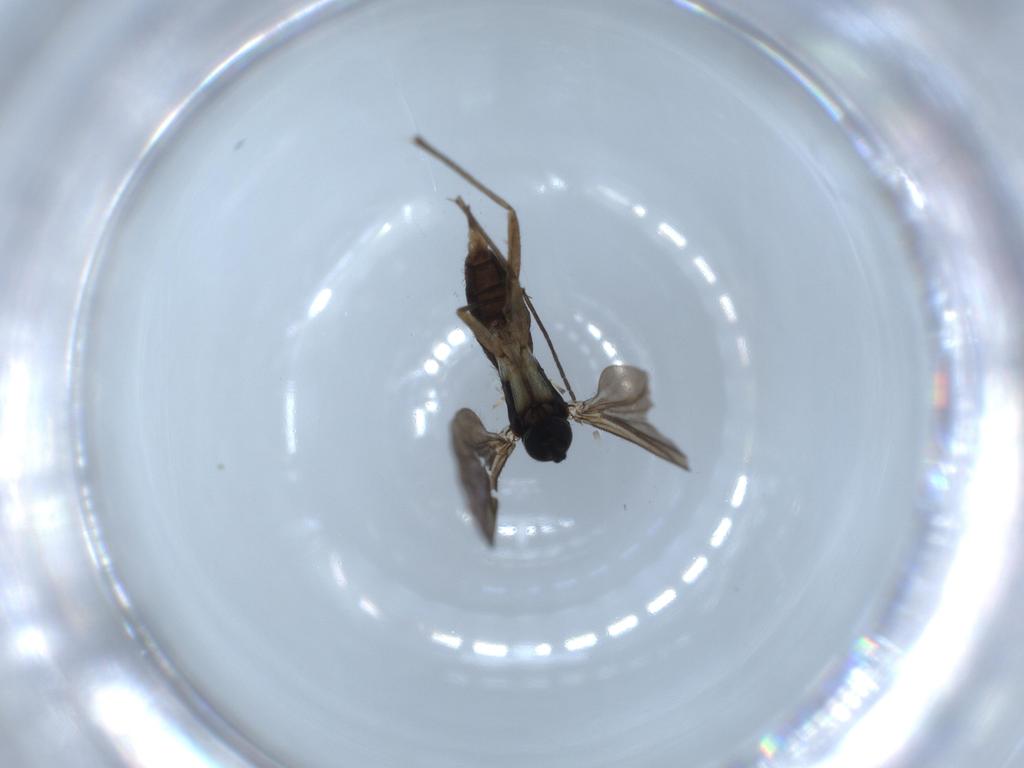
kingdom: Animalia
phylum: Arthropoda
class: Insecta
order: Diptera
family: Sciaridae
